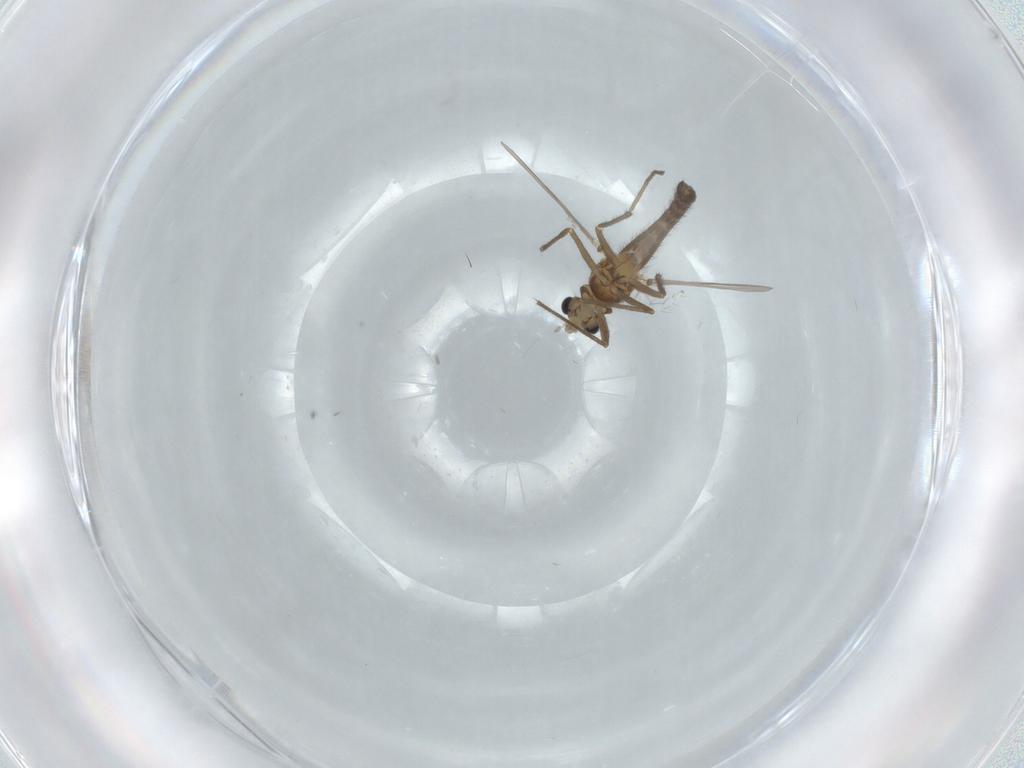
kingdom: Animalia
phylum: Arthropoda
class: Insecta
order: Diptera
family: Chironomidae
